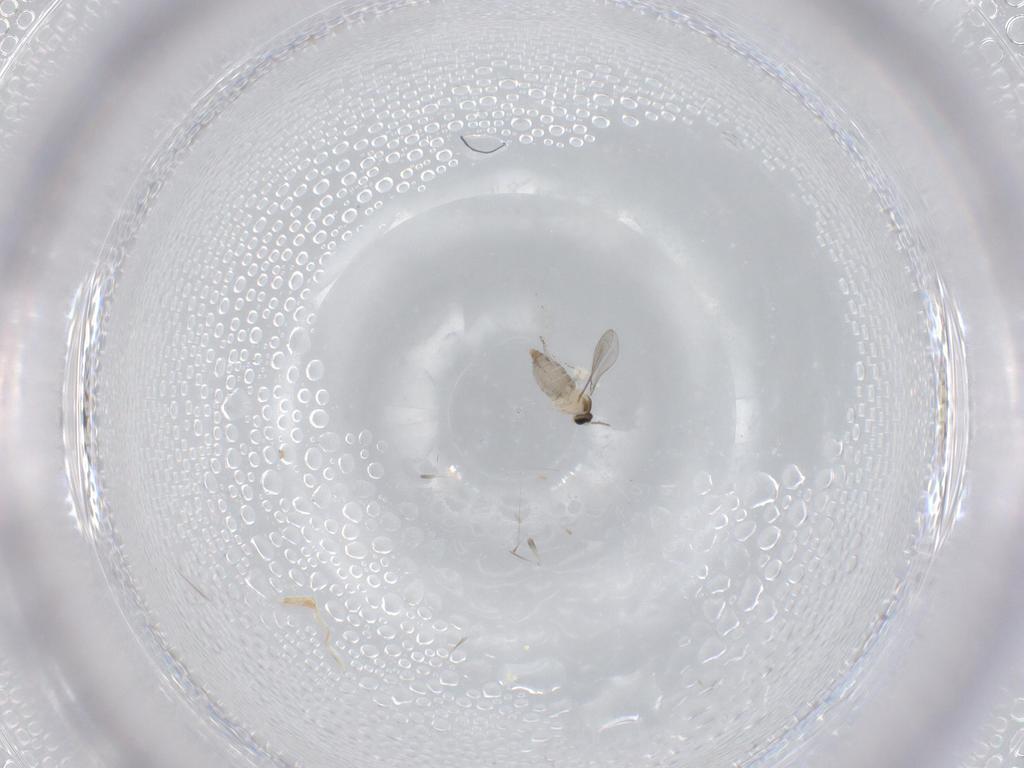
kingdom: Animalia
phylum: Arthropoda
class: Insecta
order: Diptera
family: Cecidomyiidae
